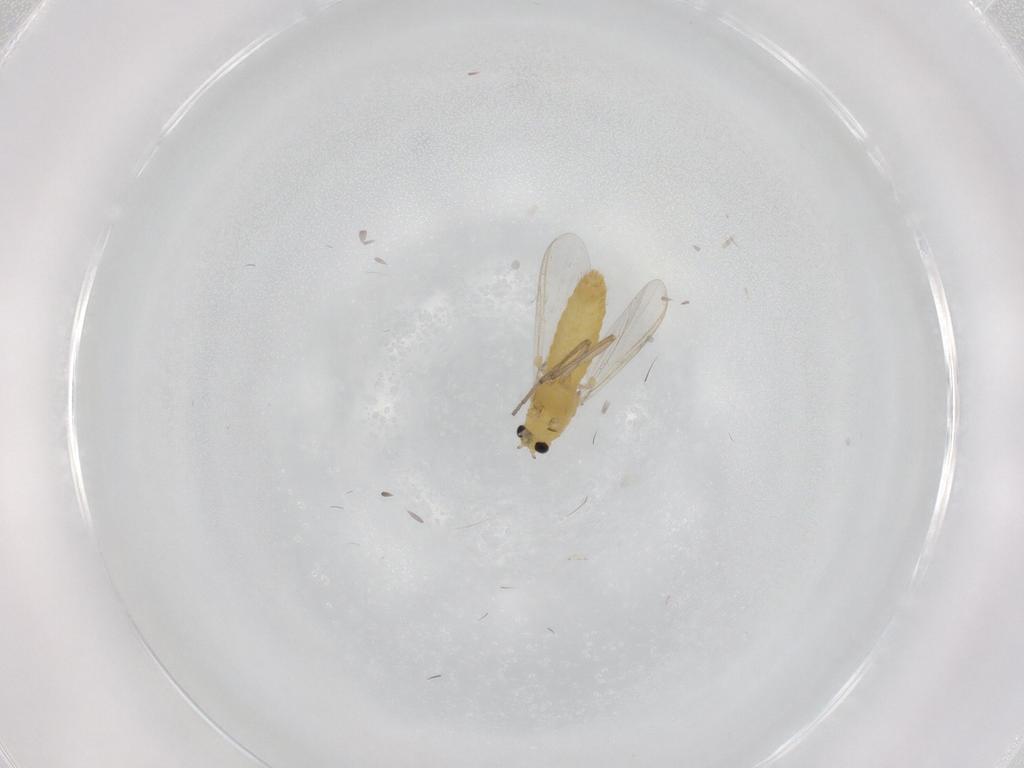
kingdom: Animalia
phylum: Arthropoda
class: Insecta
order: Diptera
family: Chironomidae
